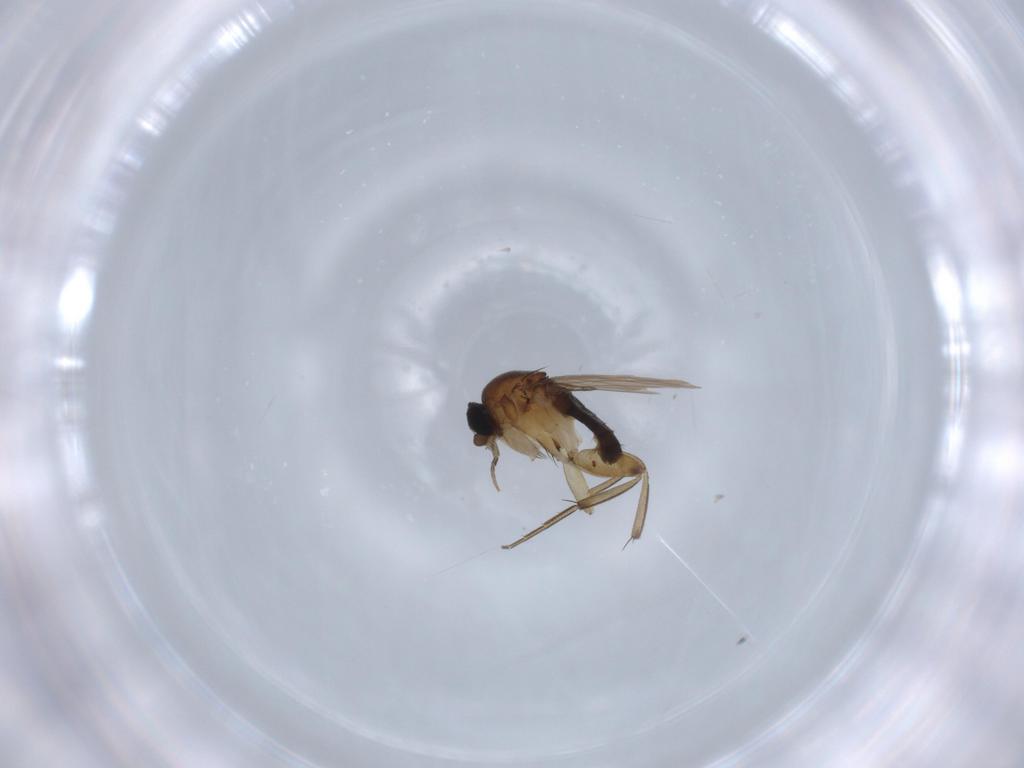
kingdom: Animalia
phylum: Arthropoda
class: Insecta
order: Diptera
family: Phoridae
